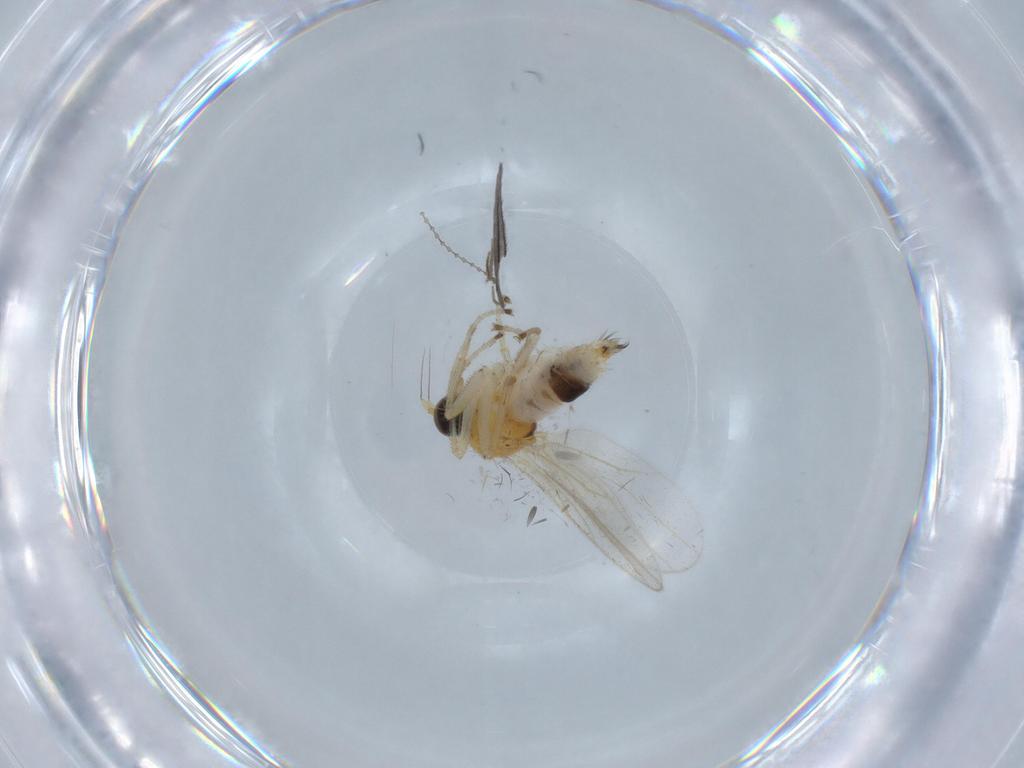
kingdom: Animalia
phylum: Arthropoda
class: Insecta
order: Diptera
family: Hybotidae
